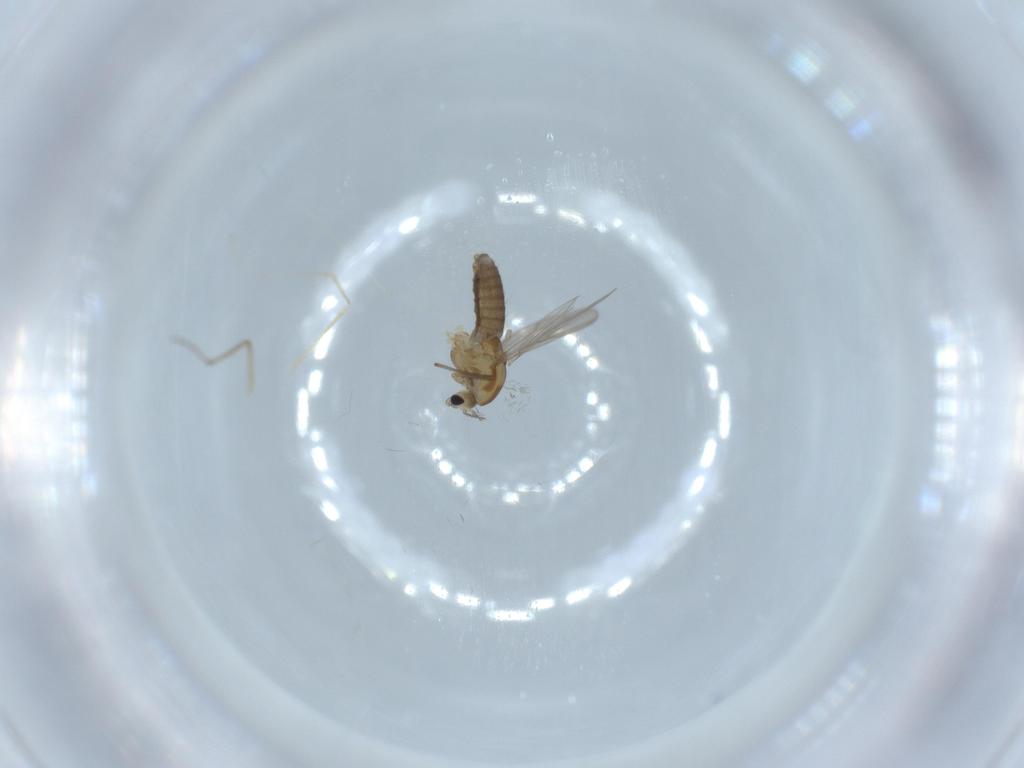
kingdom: Animalia
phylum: Arthropoda
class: Insecta
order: Diptera
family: Chironomidae
